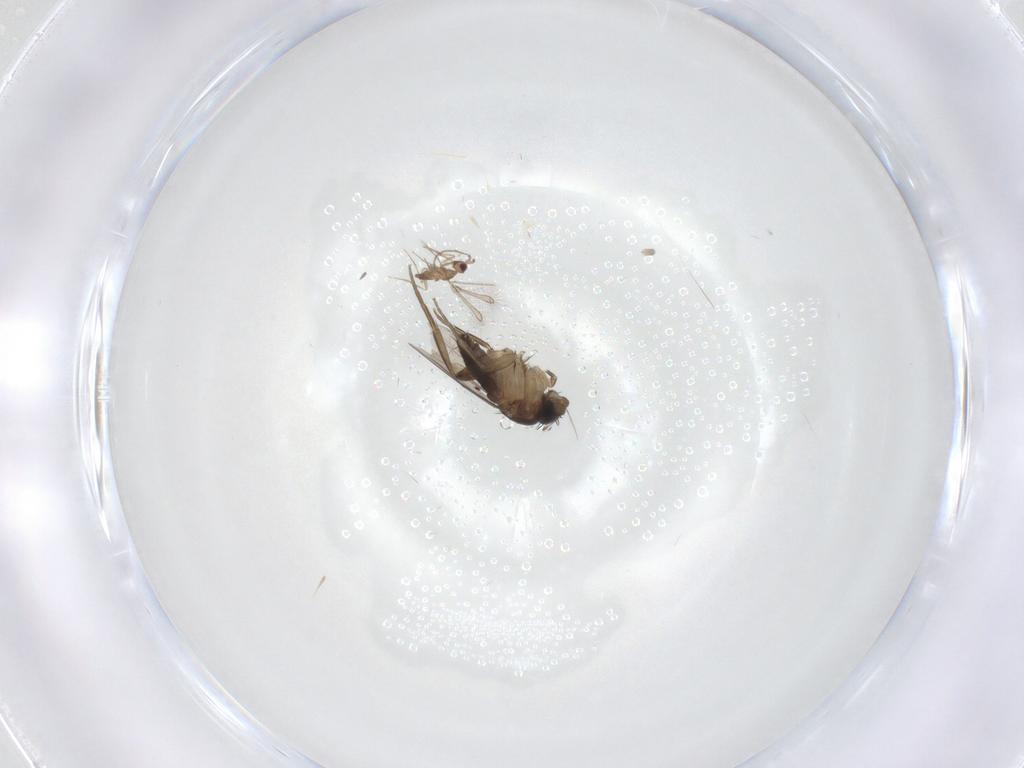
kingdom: Animalia
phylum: Arthropoda
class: Insecta
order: Diptera
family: Chironomidae
